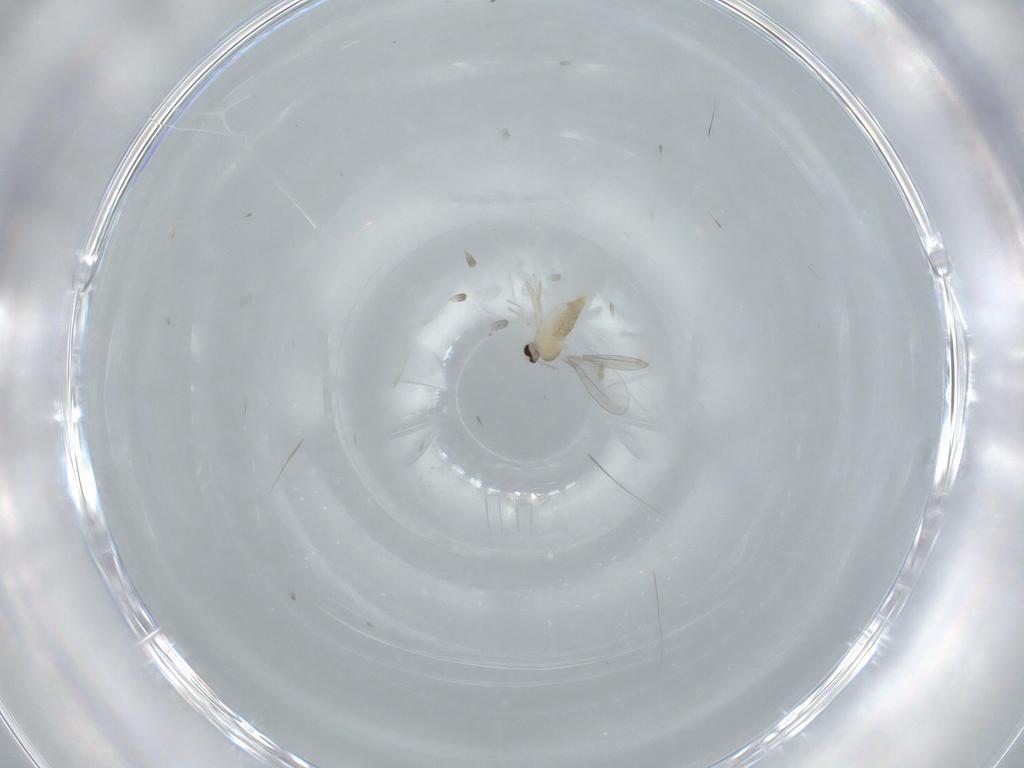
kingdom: Animalia
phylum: Arthropoda
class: Insecta
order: Diptera
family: Cecidomyiidae
